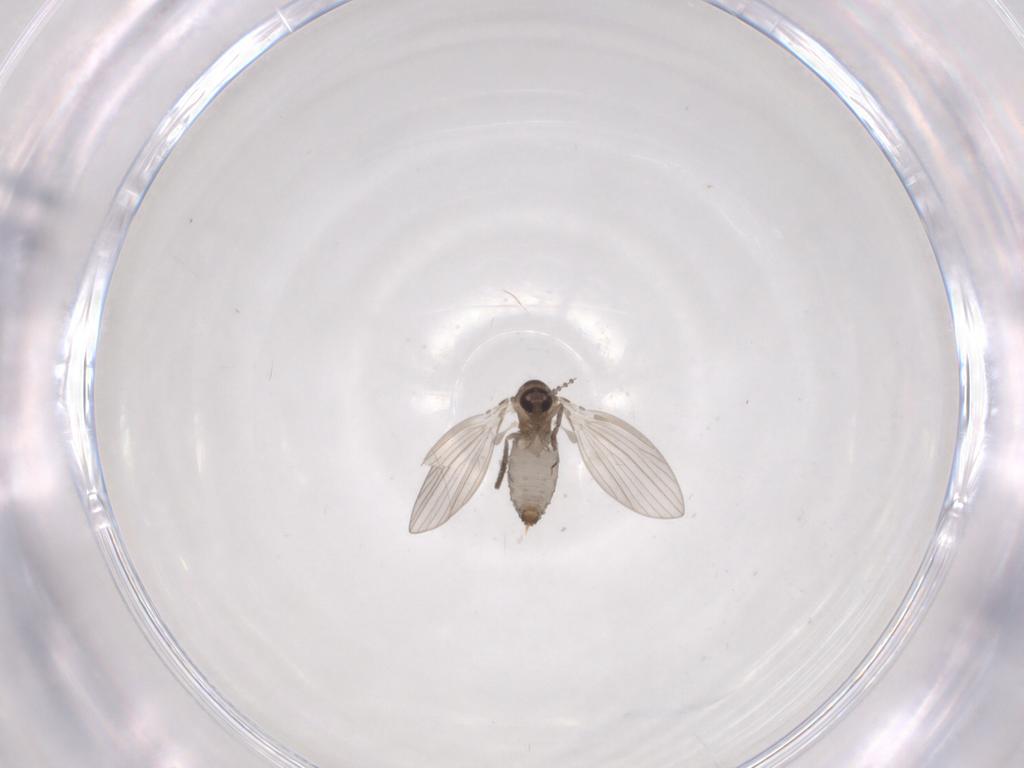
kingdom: Animalia
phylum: Arthropoda
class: Insecta
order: Diptera
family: Psychodidae
